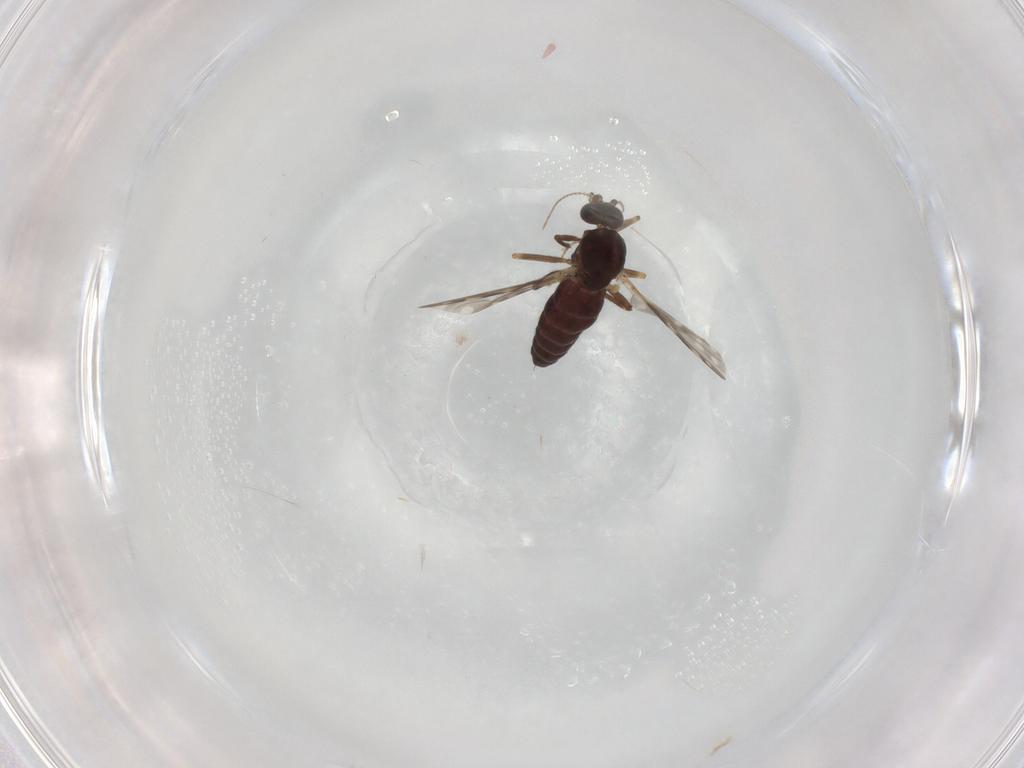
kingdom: Animalia
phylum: Arthropoda
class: Insecta
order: Diptera
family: Ceratopogonidae
